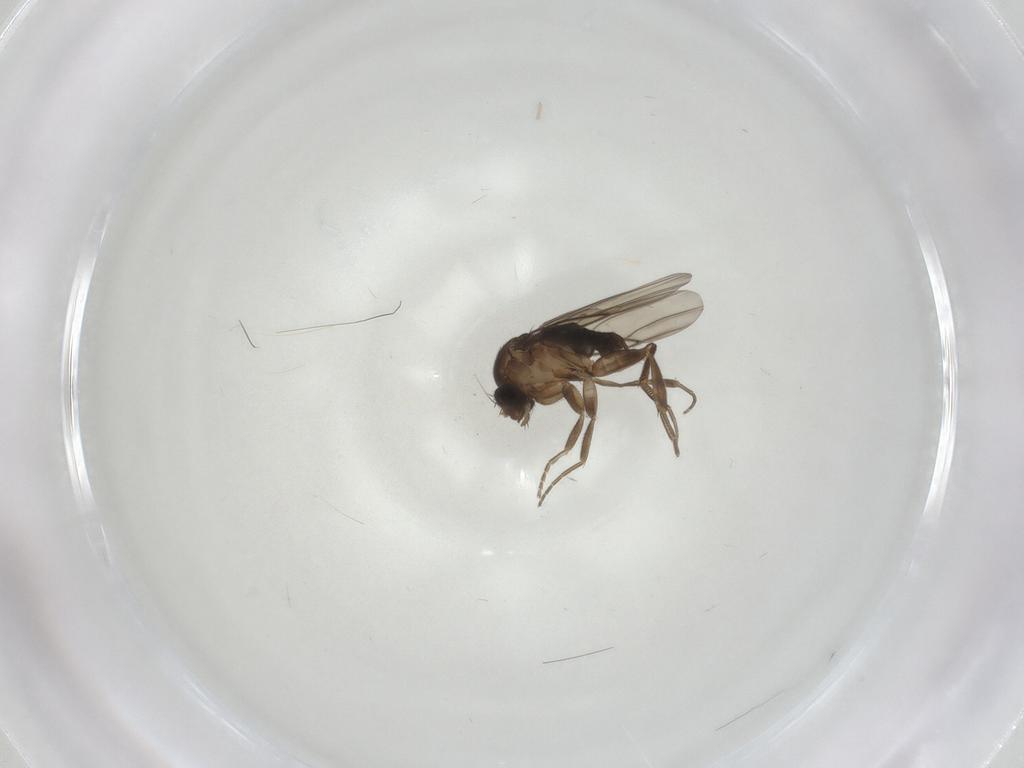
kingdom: Animalia
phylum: Arthropoda
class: Insecta
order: Diptera
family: Phoridae
